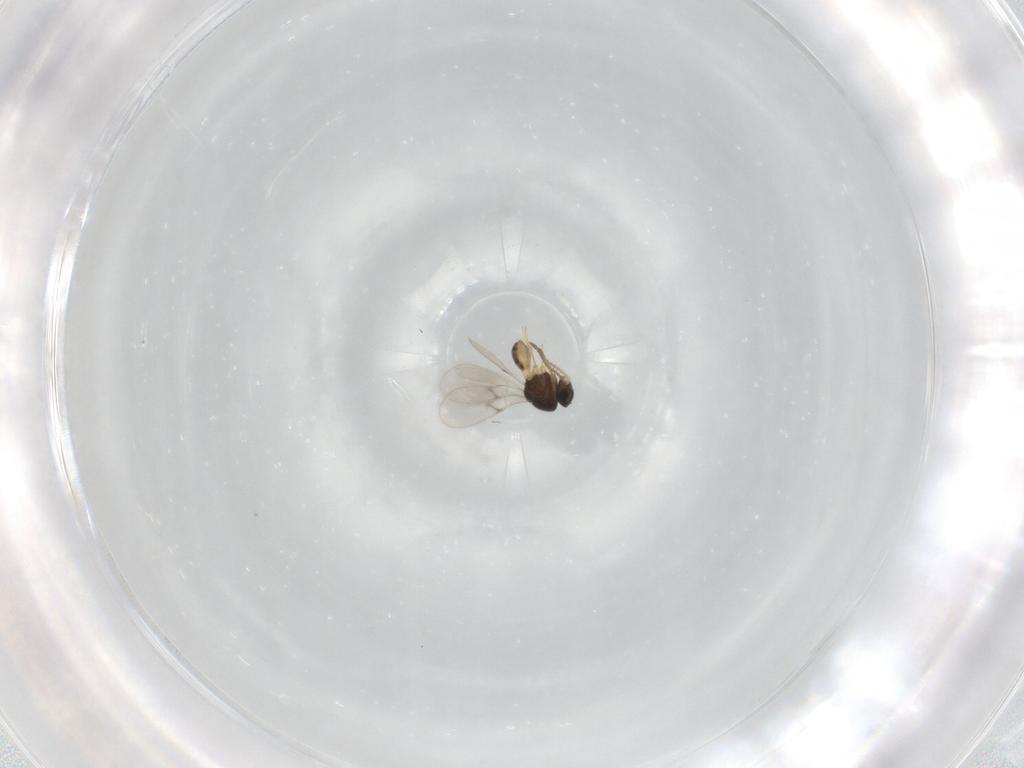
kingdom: Animalia
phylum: Arthropoda
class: Insecta
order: Hymenoptera
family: Scelionidae
